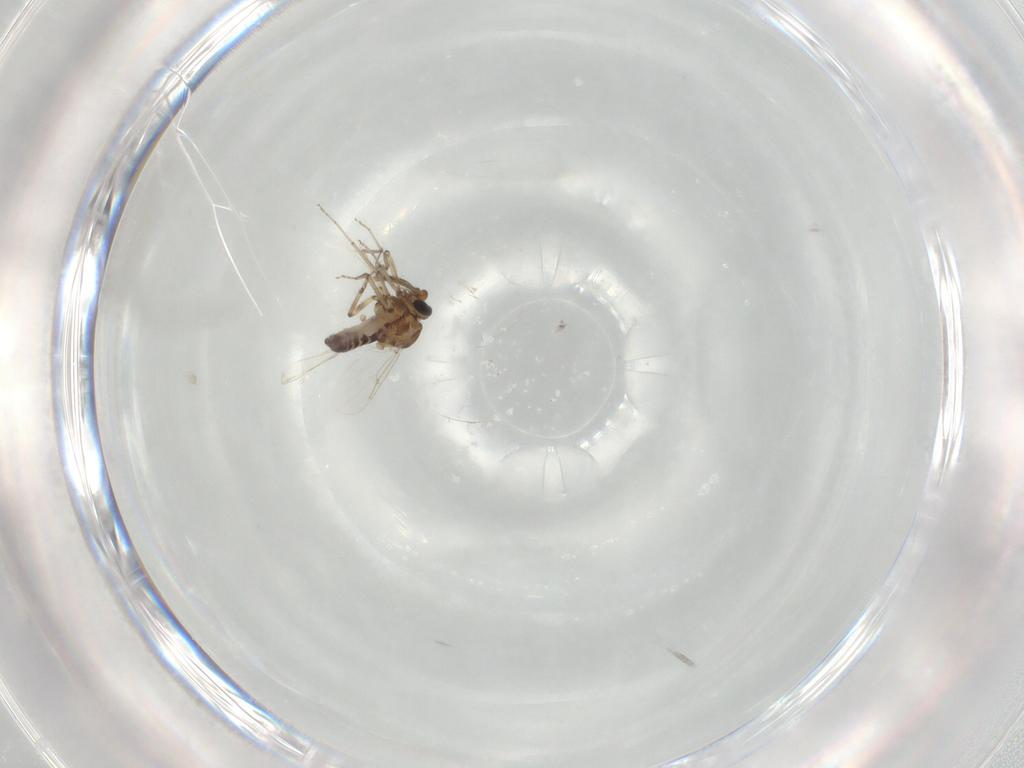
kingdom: Animalia
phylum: Arthropoda
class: Insecta
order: Diptera
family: Ceratopogonidae
